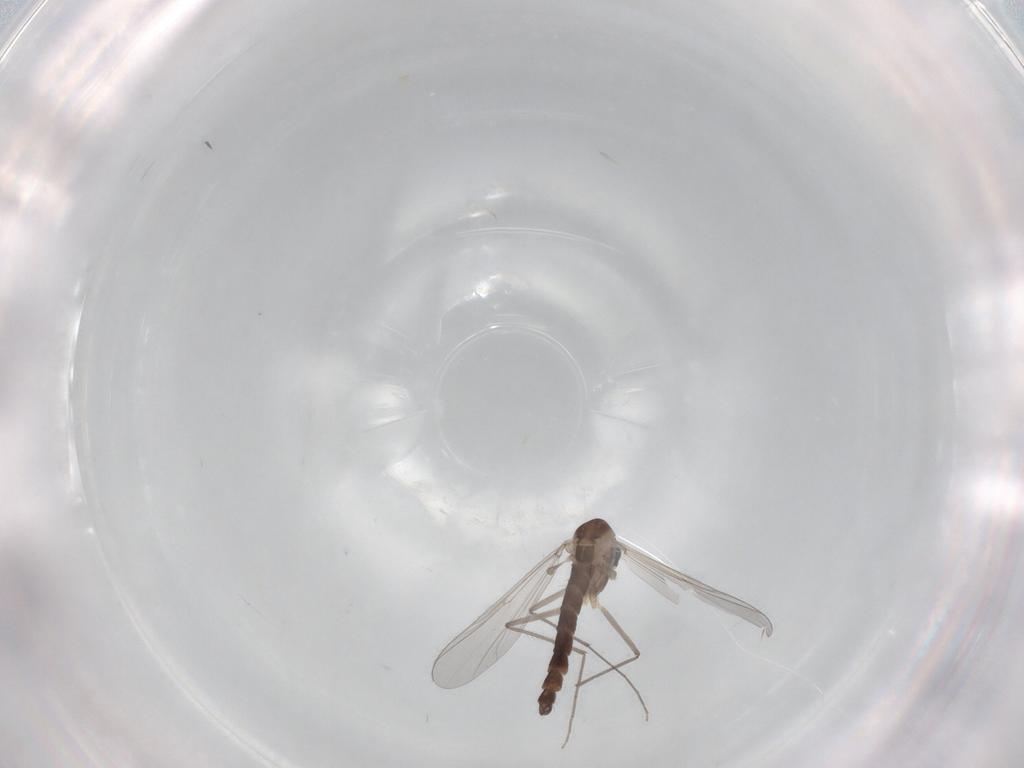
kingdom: Animalia
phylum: Arthropoda
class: Insecta
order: Diptera
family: Chironomidae
